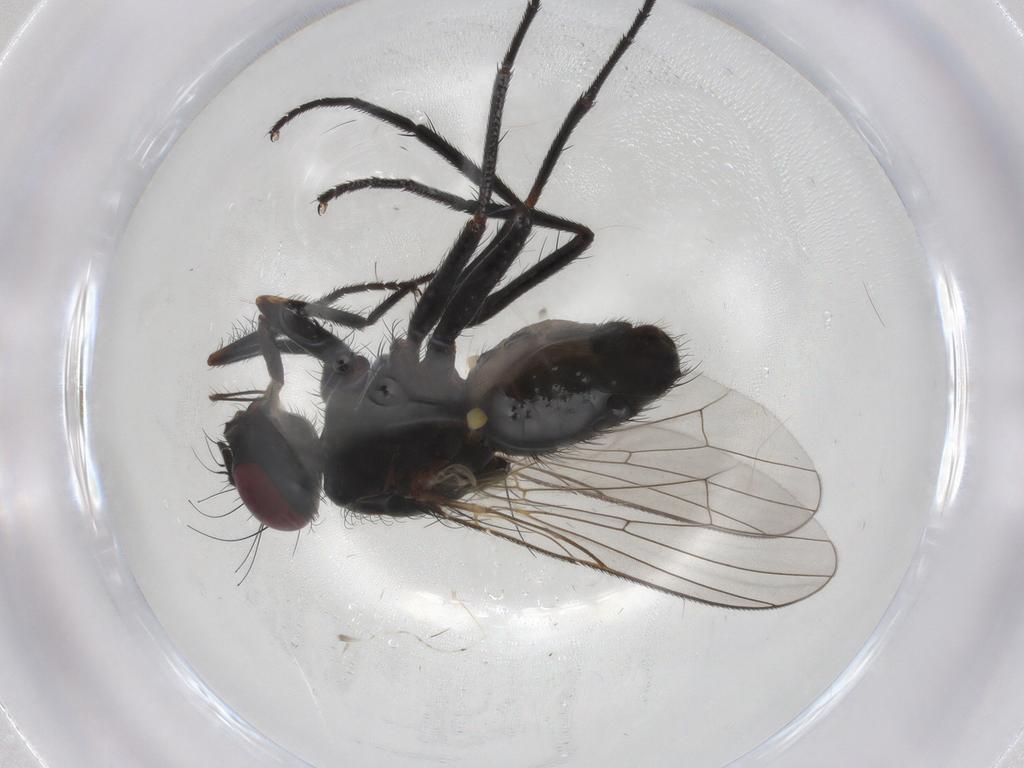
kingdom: Animalia
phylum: Arthropoda
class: Insecta
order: Diptera
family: Muscidae
